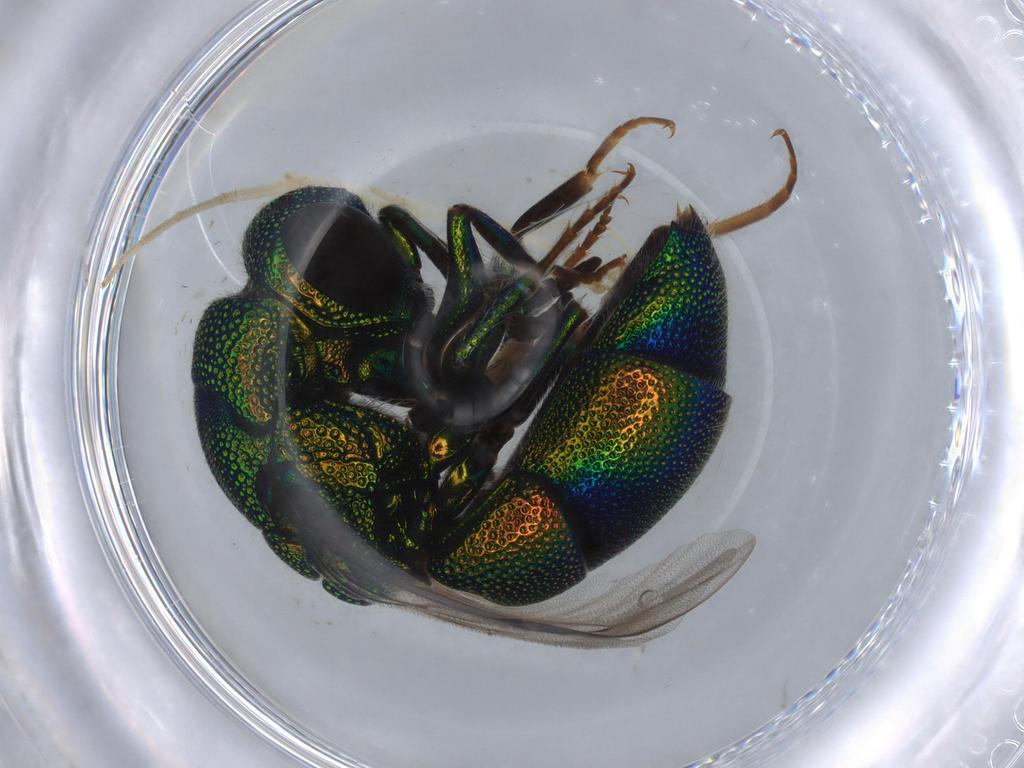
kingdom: Animalia
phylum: Arthropoda
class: Insecta
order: Hymenoptera
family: Chrysididae
